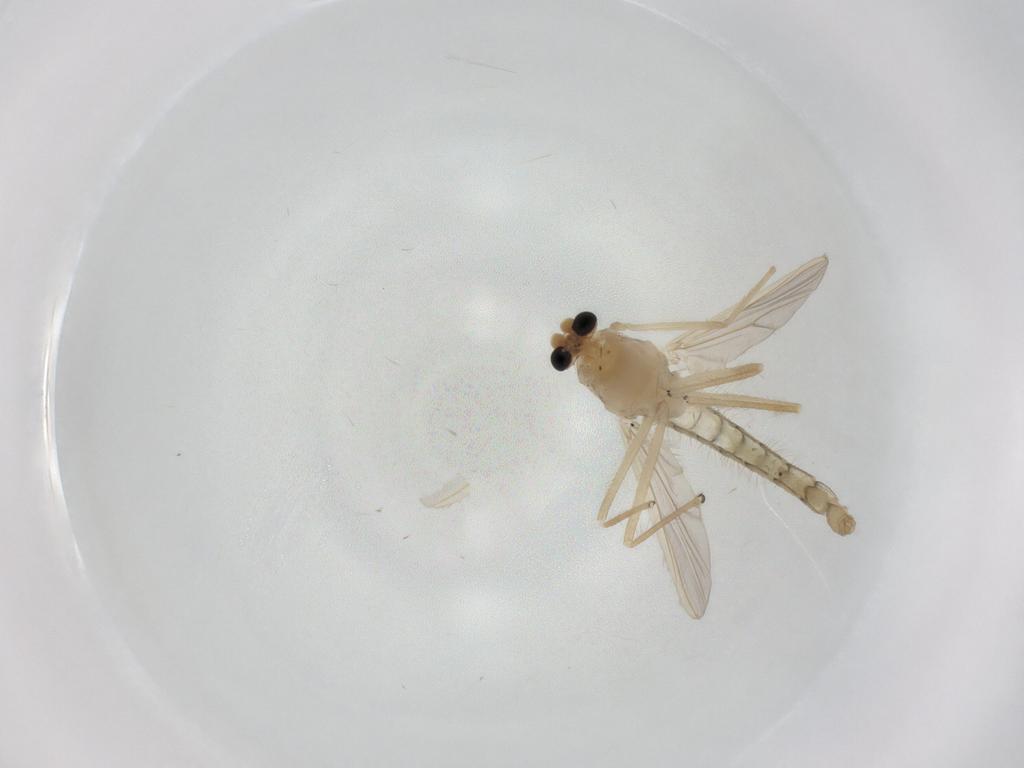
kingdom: Animalia
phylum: Arthropoda
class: Insecta
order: Diptera
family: Chironomidae
